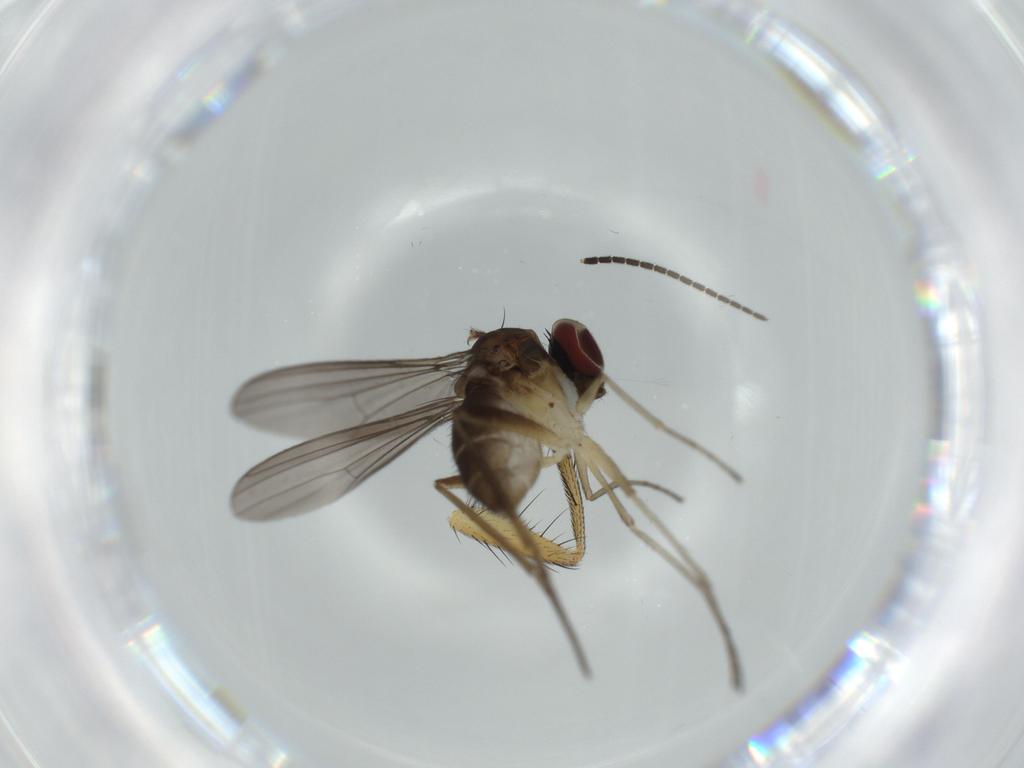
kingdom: Animalia
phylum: Arthropoda
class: Insecta
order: Diptera
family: Dolichopodidae
